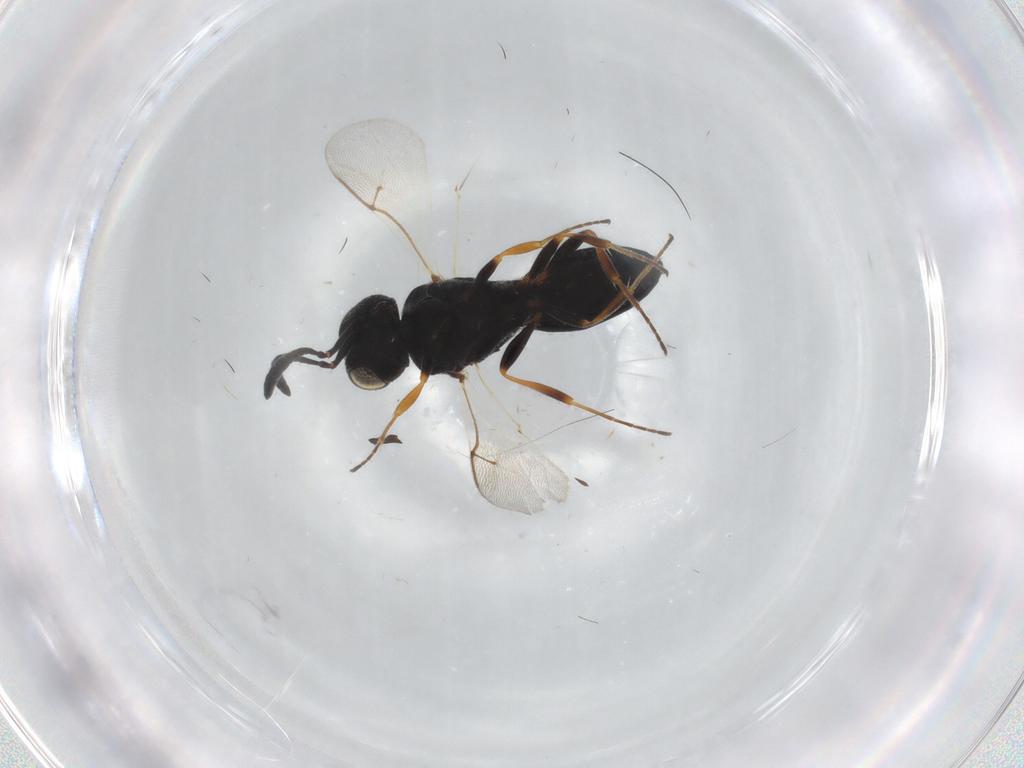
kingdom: Animalia
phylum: Arthropoda
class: Insecta
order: Hymenoptera
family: Scelionidae
